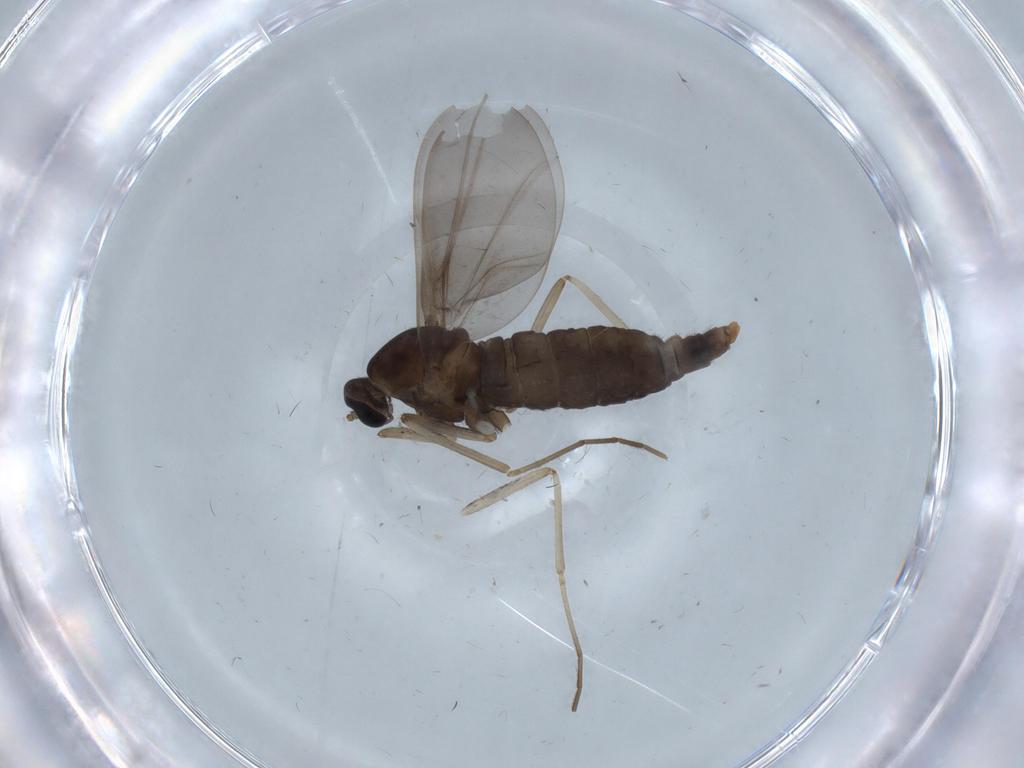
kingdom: Animalia
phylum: Arthropoda
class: Insecta
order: Diptera
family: Cecidomyiidae
